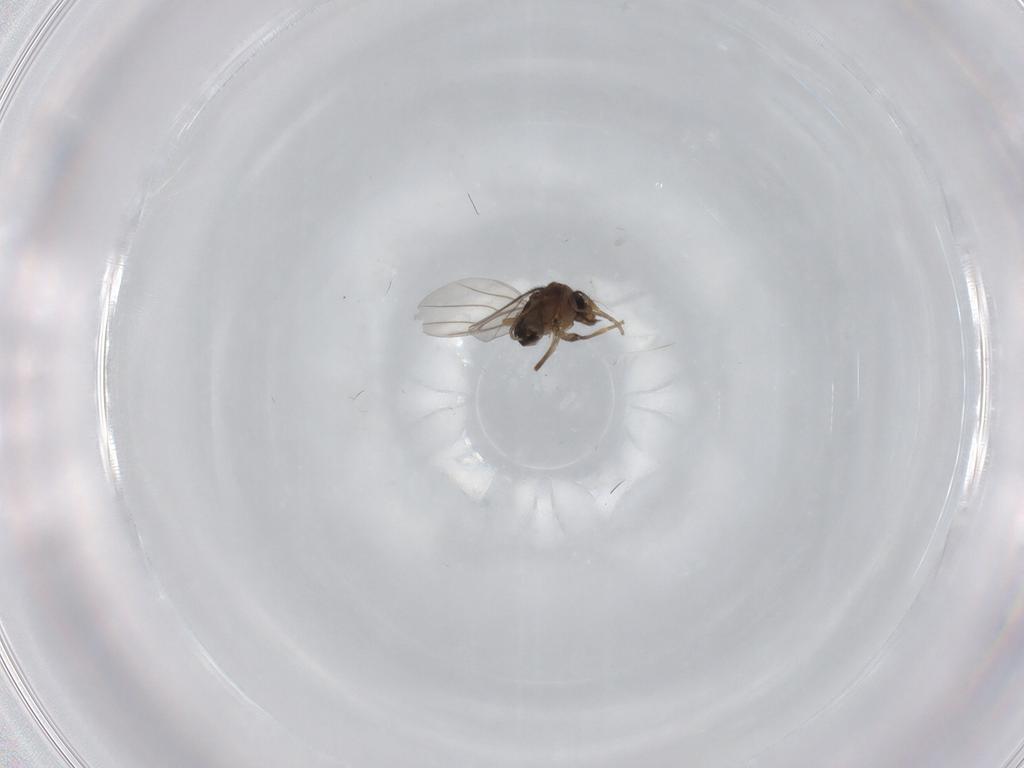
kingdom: Animalia
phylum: Arthropoda
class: Insecta
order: Diptera
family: Phoridae
